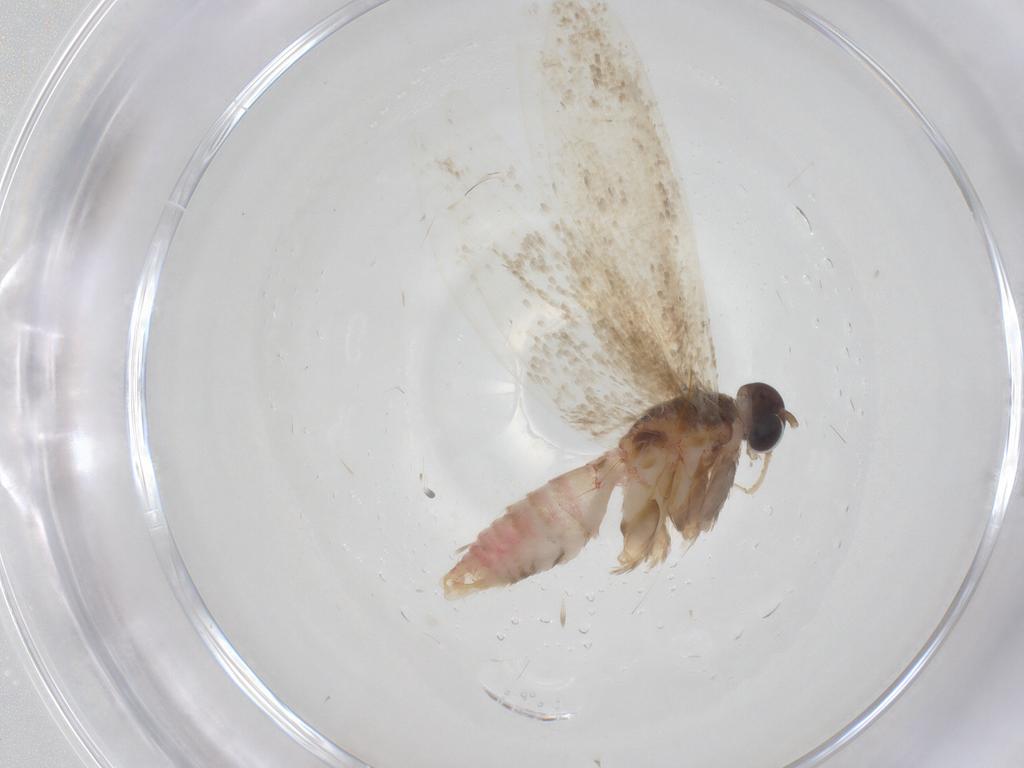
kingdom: Animalia
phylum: Arthropoda
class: Insecta
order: Lepidoptera
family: Autostichidae
